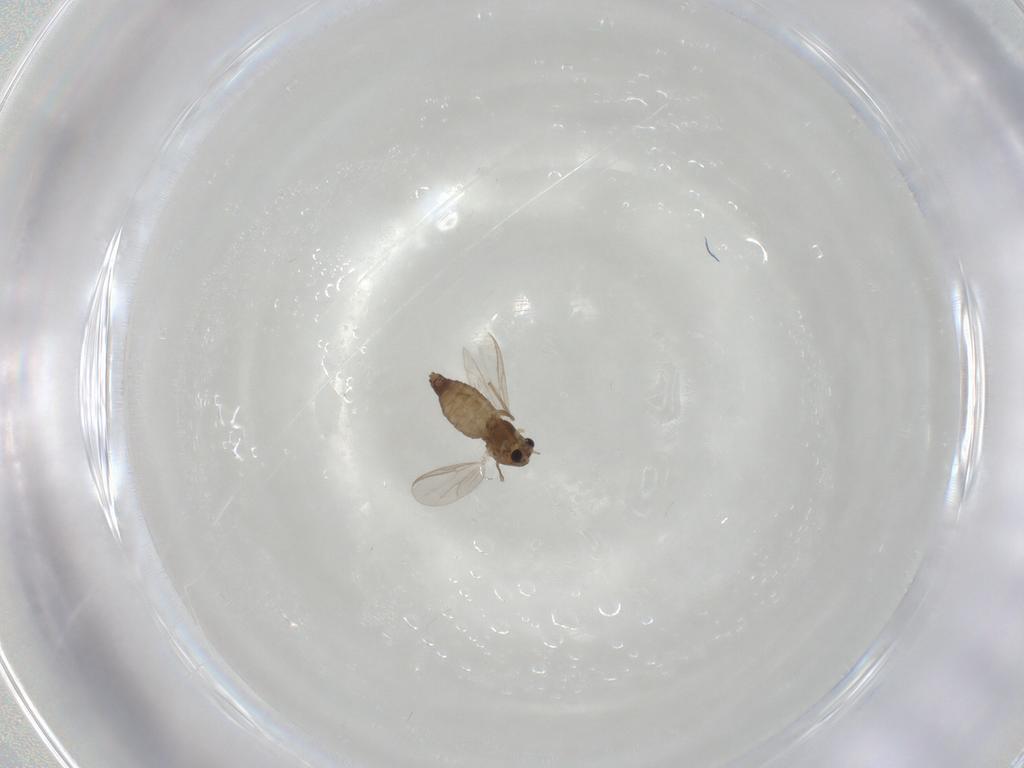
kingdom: Animalia
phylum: Arthropoda
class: Insecta
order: Diptera
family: Chironomidae
